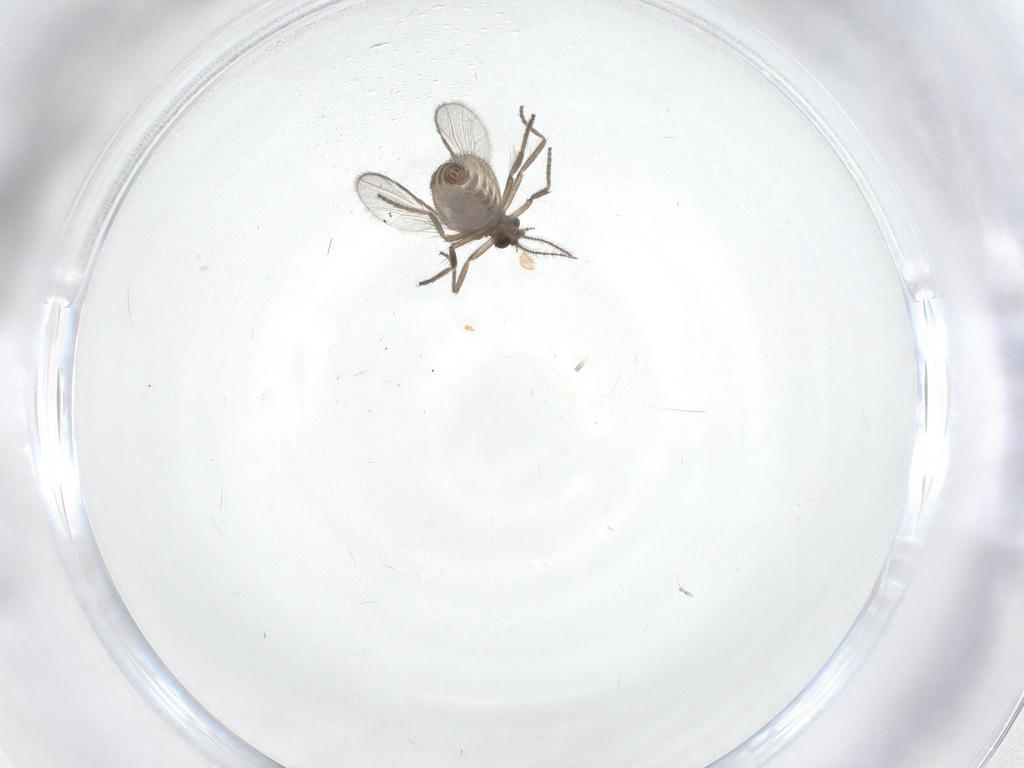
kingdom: Animalia
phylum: Arthropoda
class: Insecta
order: Diptera
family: Ceratopogonidae
